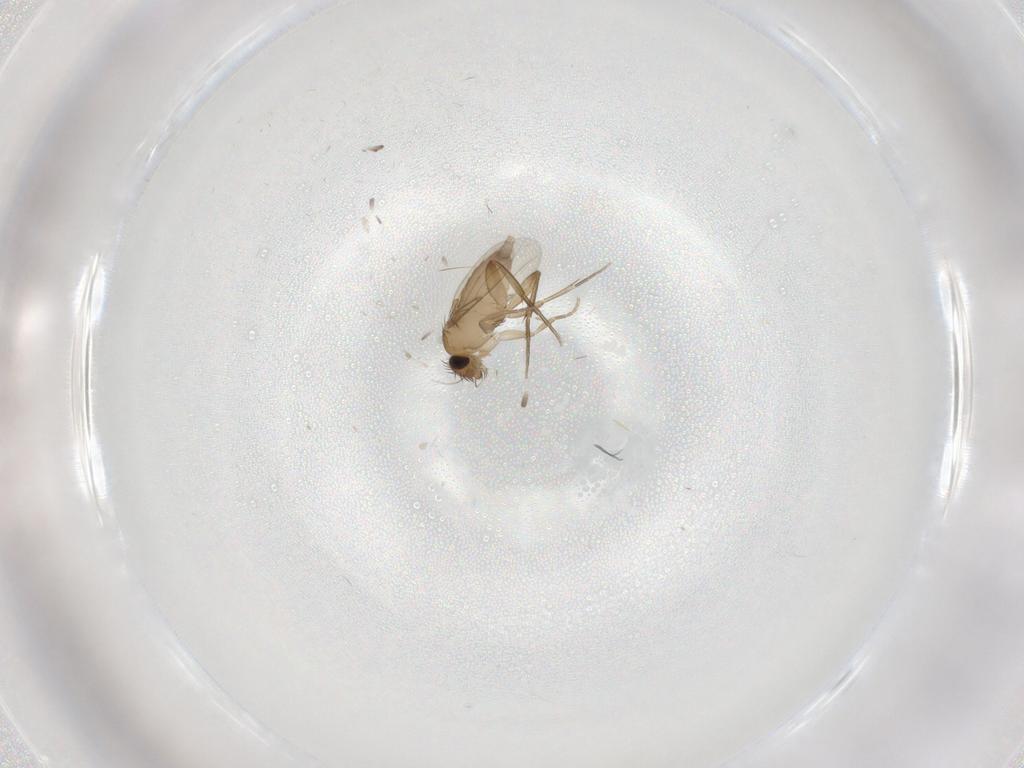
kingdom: Animalia
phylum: Arthropoda
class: Insecta
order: Diptera
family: Phoridae
